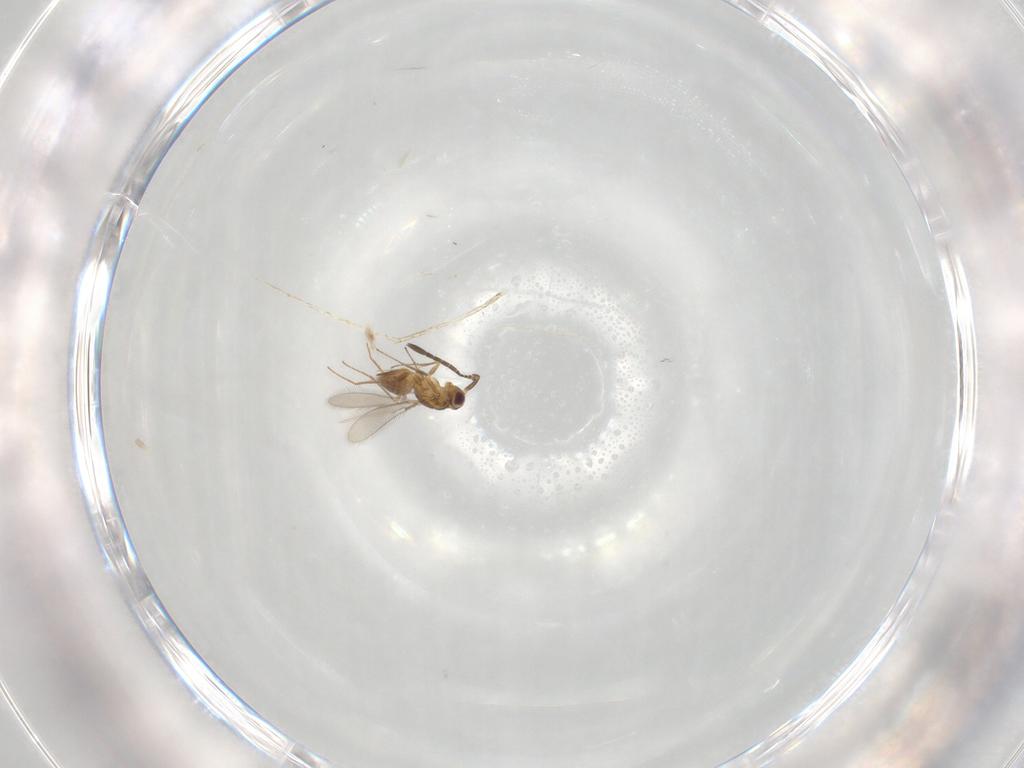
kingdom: Animalia
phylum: Arthropoda
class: Insecta
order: Hymenoptera
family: Mymaridae
